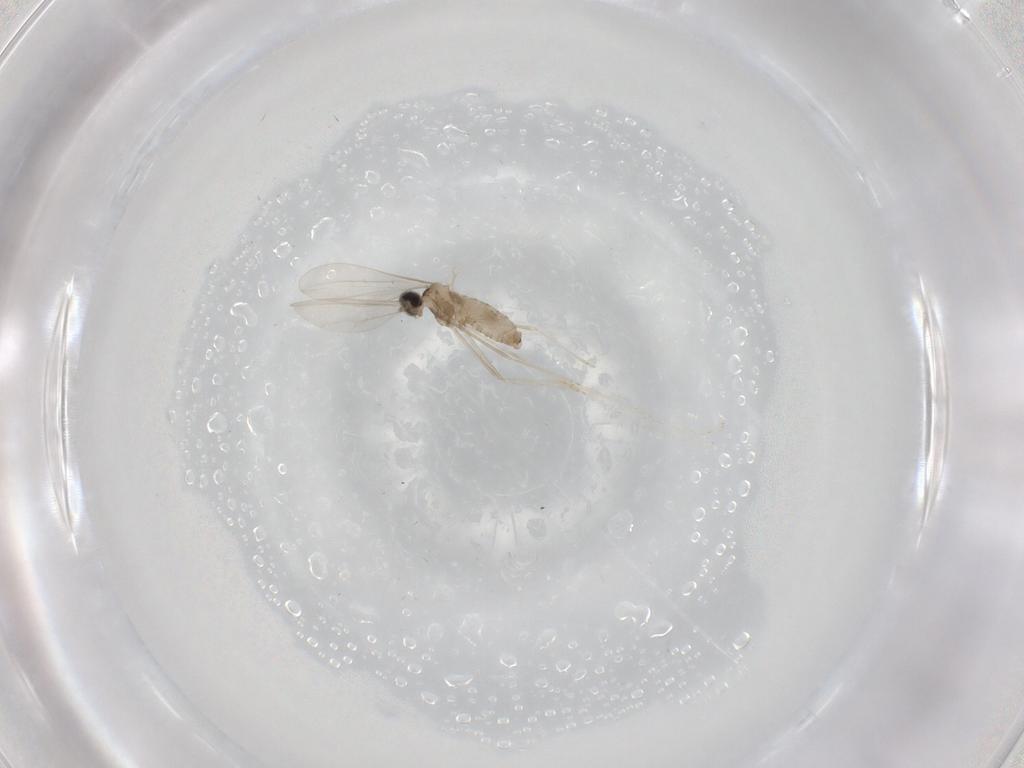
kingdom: Animalia
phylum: Arthropoda
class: Insecta
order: Diptera
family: Cecidomyiidae
